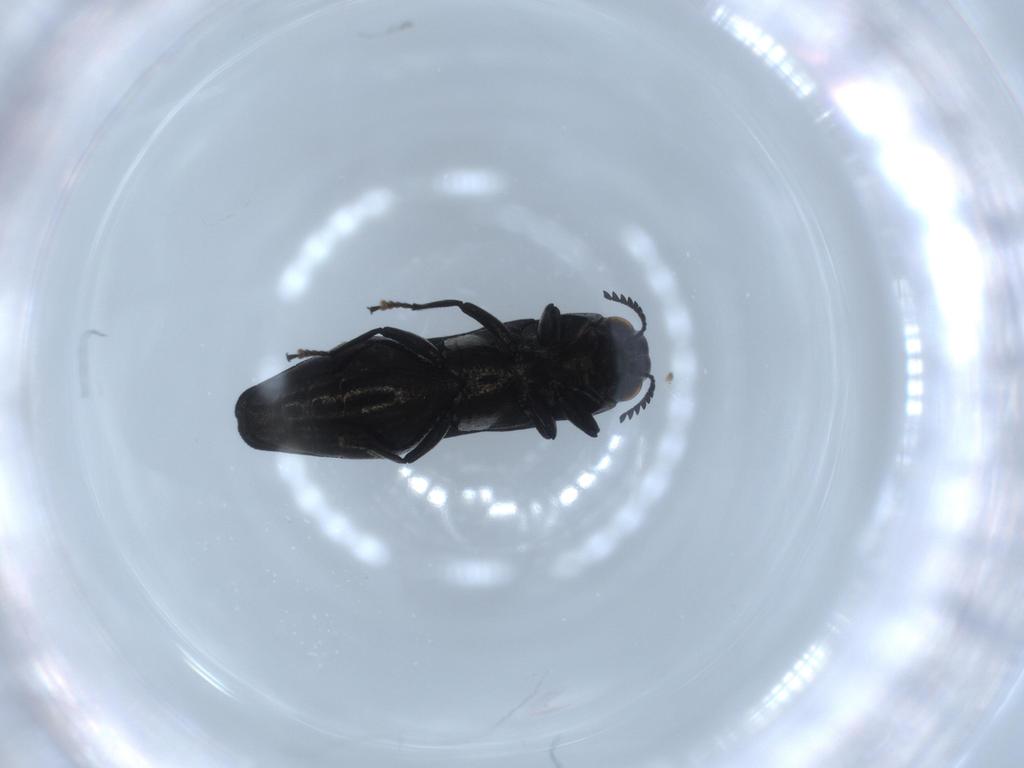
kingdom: Animalia
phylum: Arthropoda
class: Insecta
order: Coleoptera
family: Buprestidae
